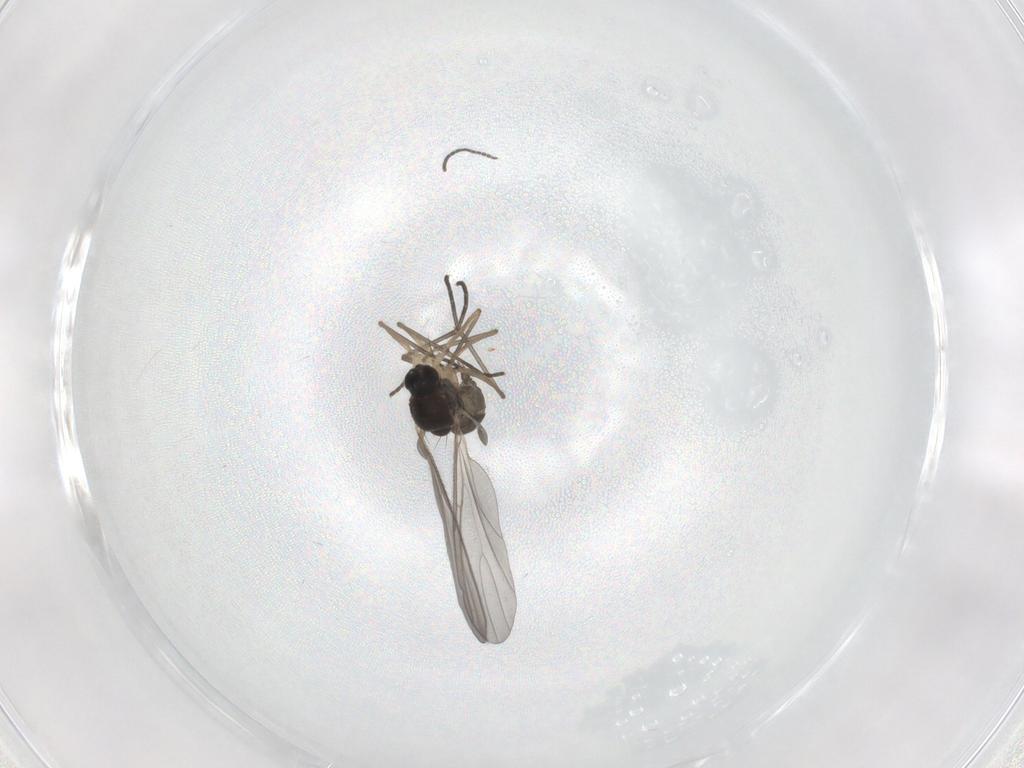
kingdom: Animalia
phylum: Arthropoda
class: Insecta
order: Diptera
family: Sciaridae
